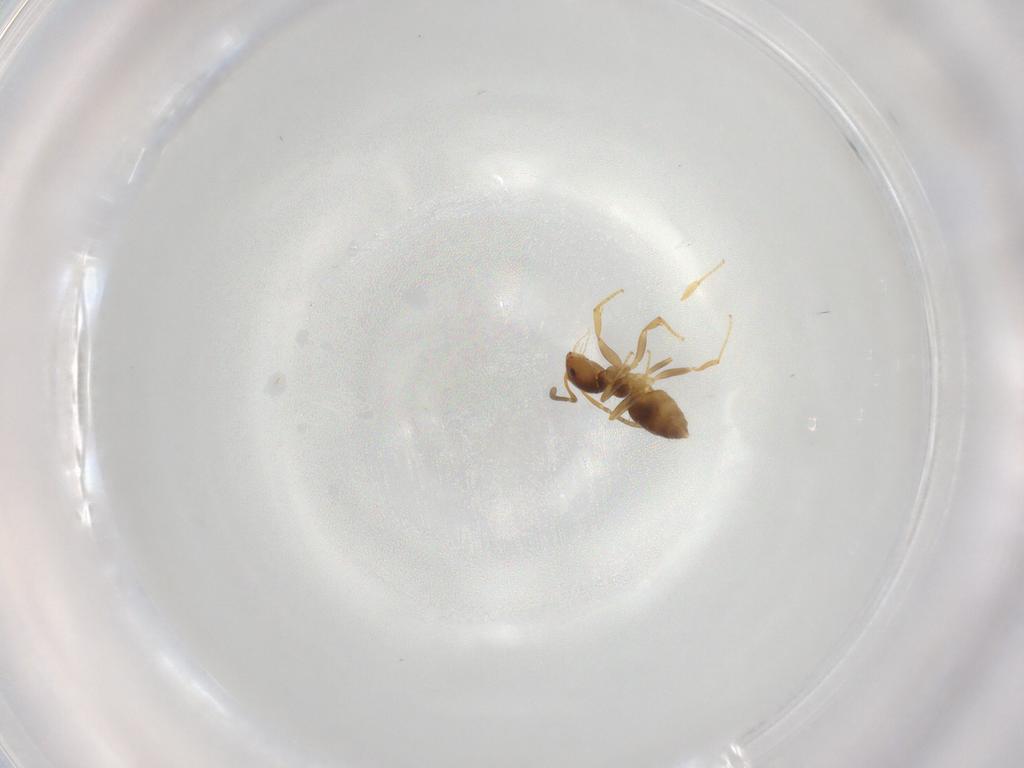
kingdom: Animalia
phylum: Arthropoda
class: Insecta
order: Hymenoptera
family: Formicidae
